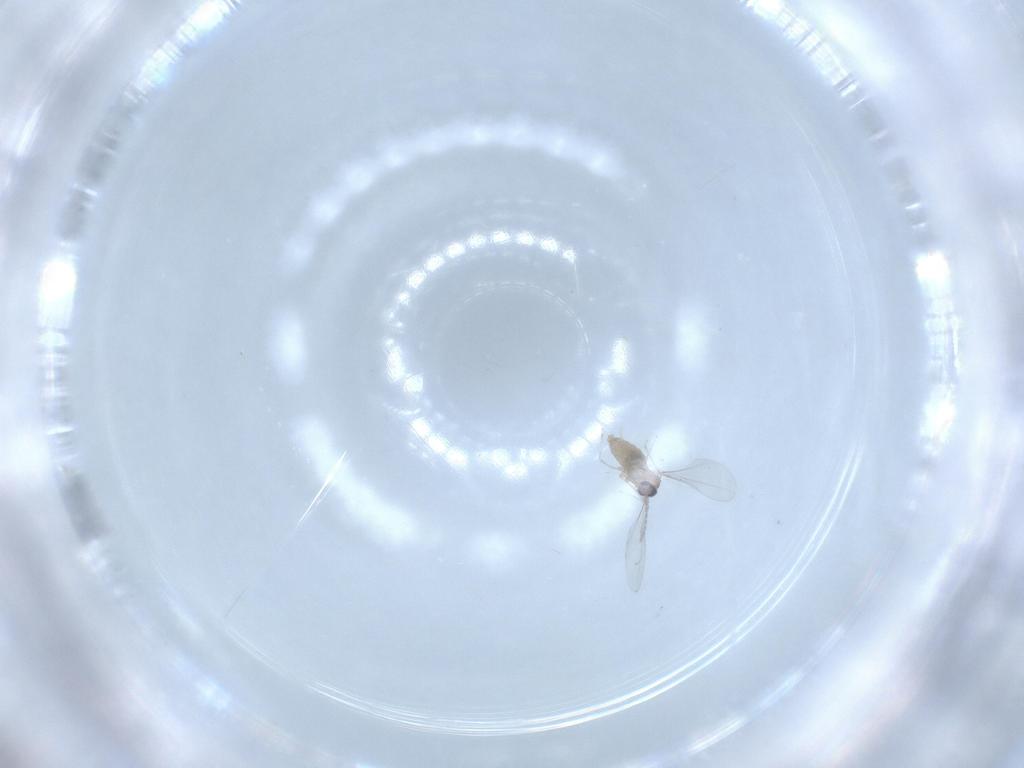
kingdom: Animalia
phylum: Arthropoda
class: Insecta
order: Diptera
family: Cecidomyiidae
